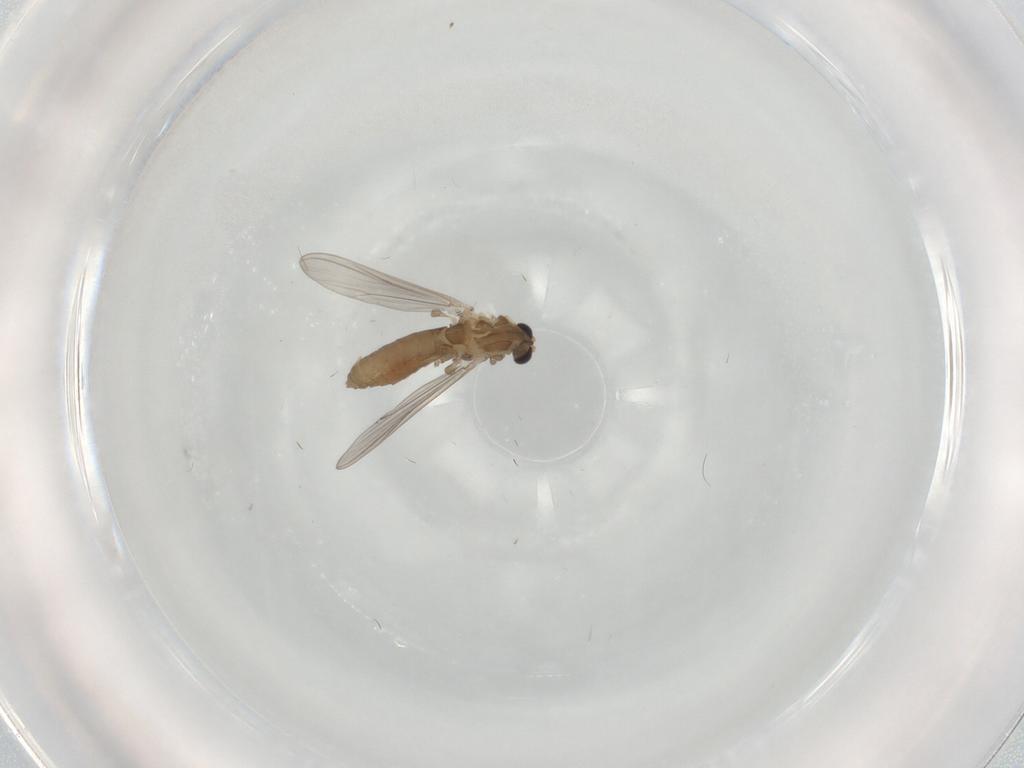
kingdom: Animalia
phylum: Arthropoda
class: Insecta
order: Diptera
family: Chironomidae
